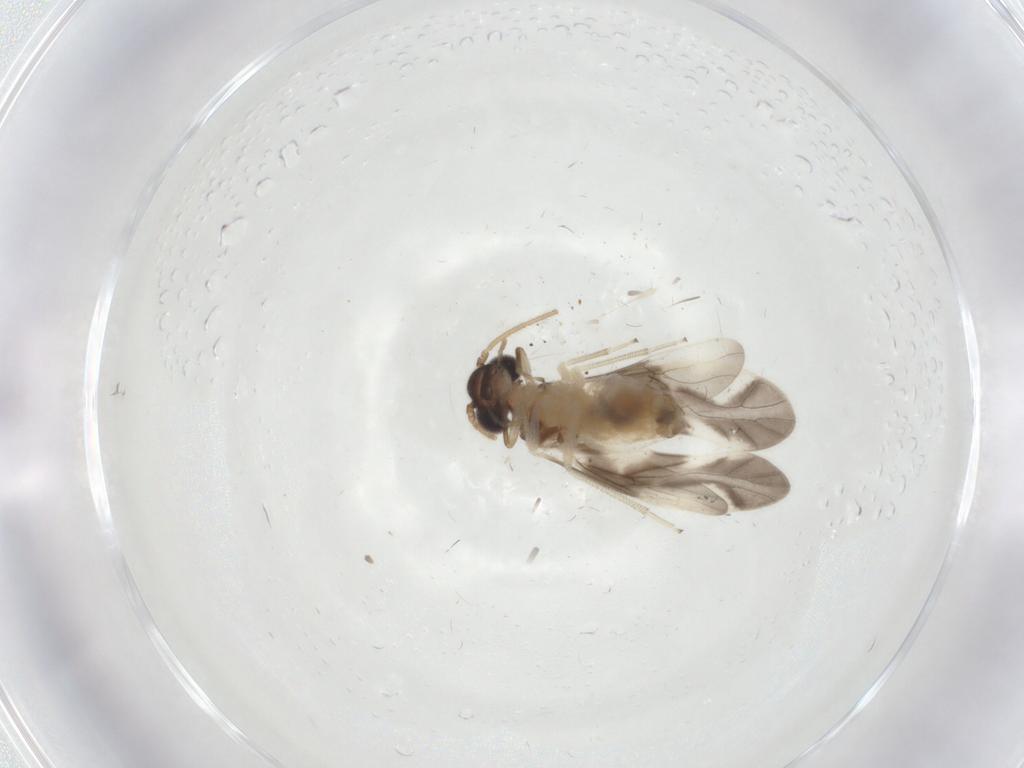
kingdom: Animalia
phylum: Arthropoda
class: Insecta
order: Psocodea
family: Caeciliusidae
